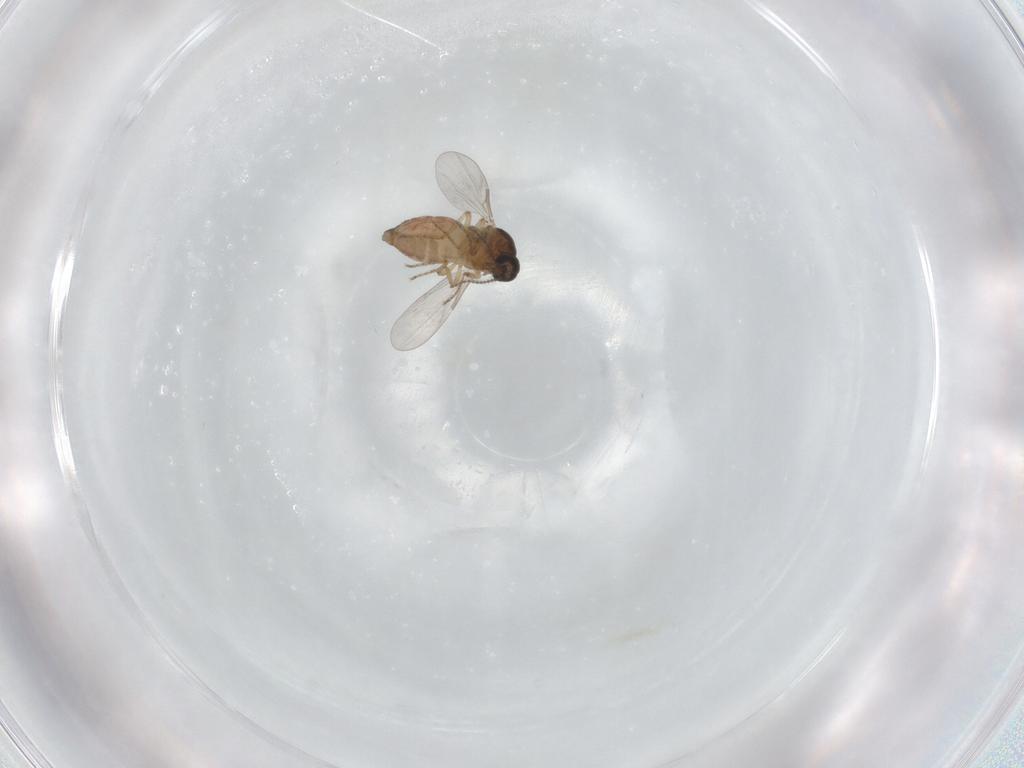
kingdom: Animalia
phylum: Arthropoda
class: Insecta
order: Diptera
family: Ceratopogonidae
